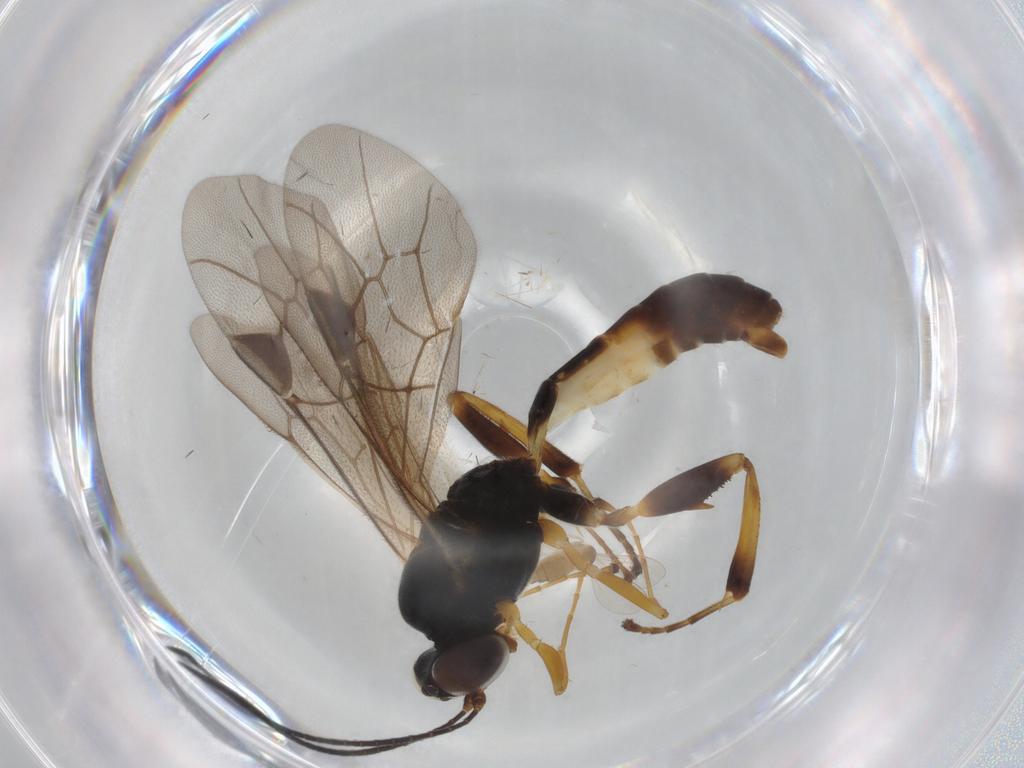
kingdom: Animalia
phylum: Arthropoda
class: Insecta
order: Hymenoptera
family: Ichneumonidae
